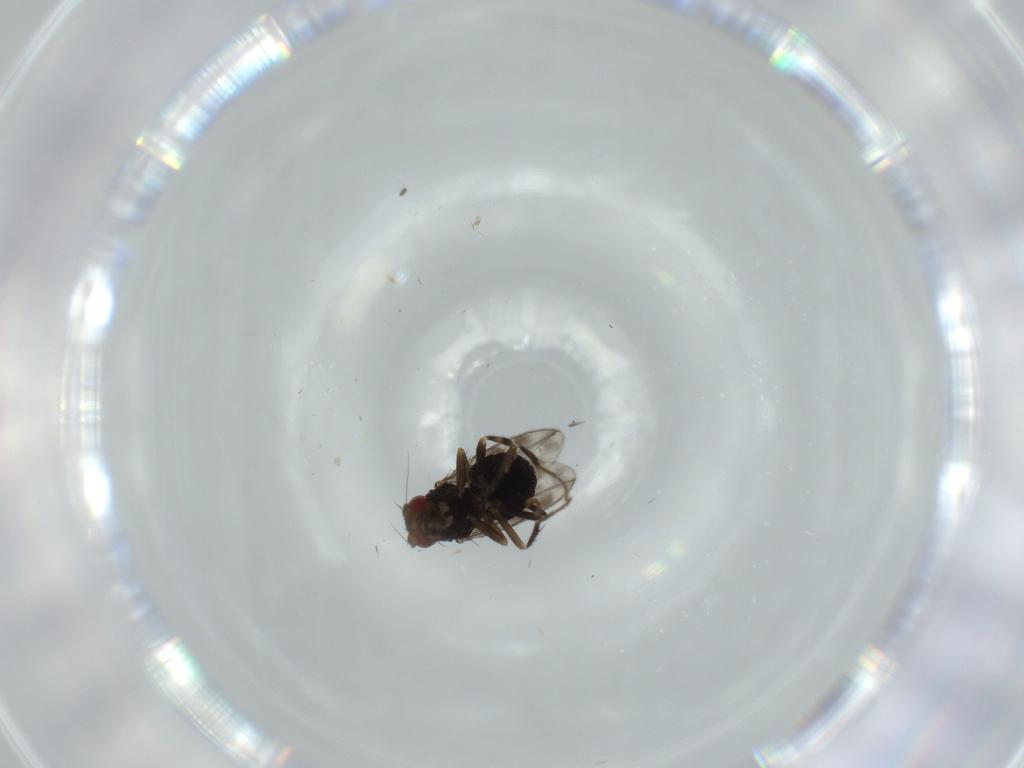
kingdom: Animalia
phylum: Arthropoda
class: Insecta
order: Diptera
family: Sphaeroceridae
